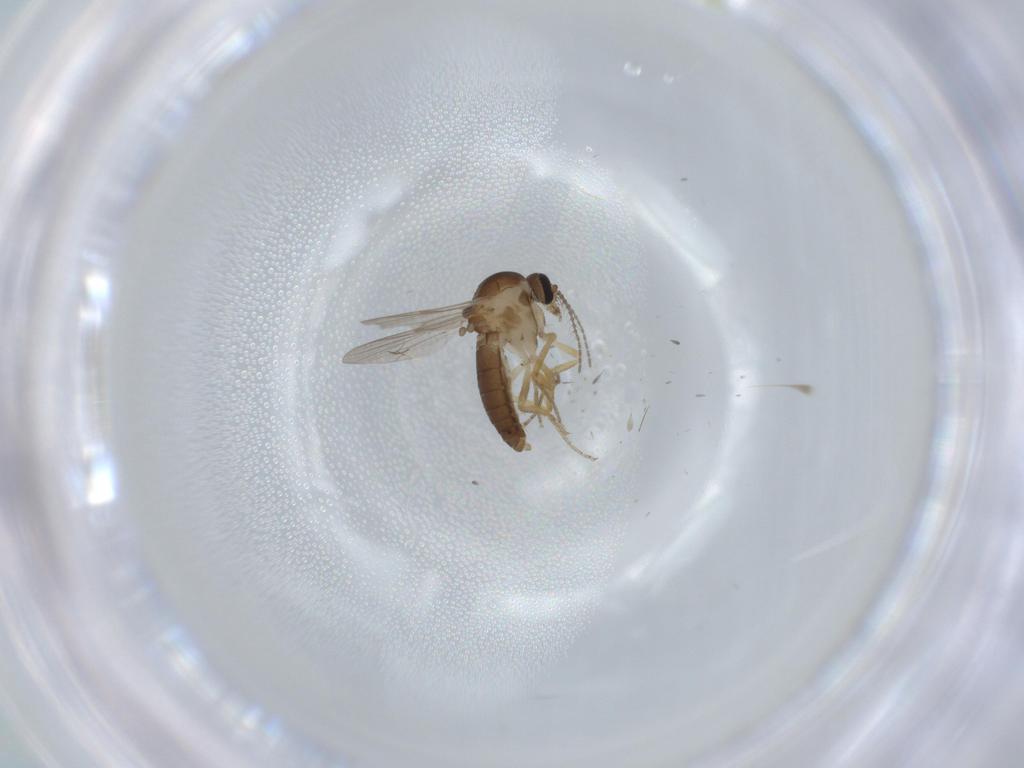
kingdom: Animalia
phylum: Arthropoda
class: Insecta
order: Diptera
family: Ceratopogonidae
